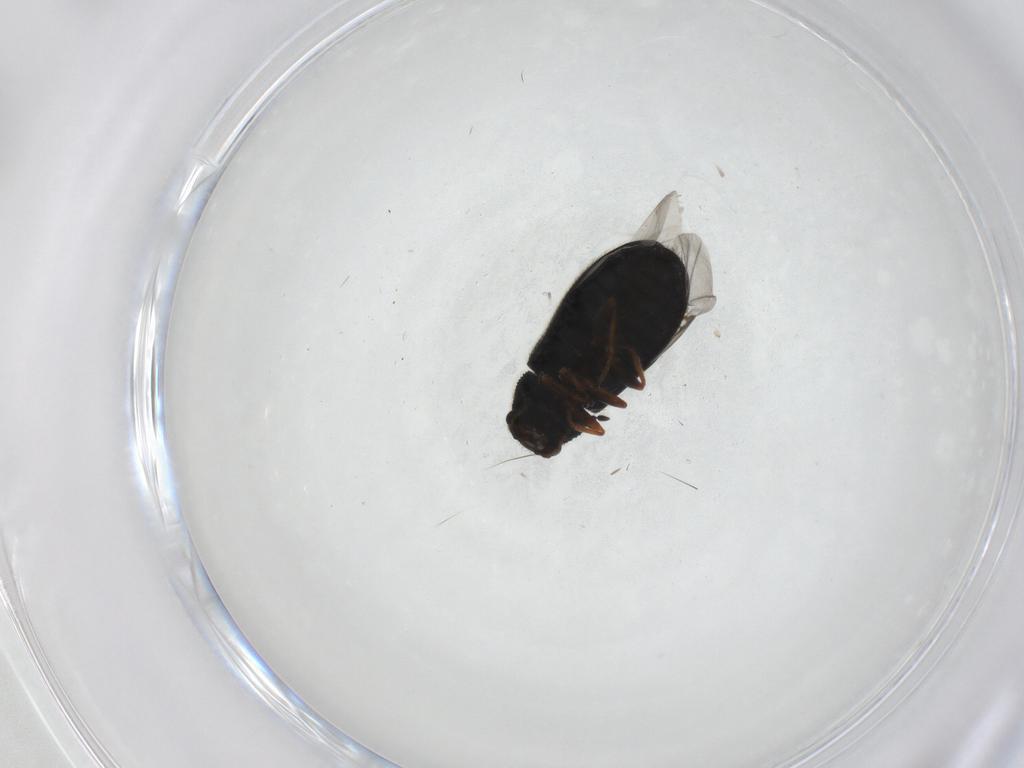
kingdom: Animalia
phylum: Arthropoda
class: Insecta
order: Coleoptera
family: Melyridae
